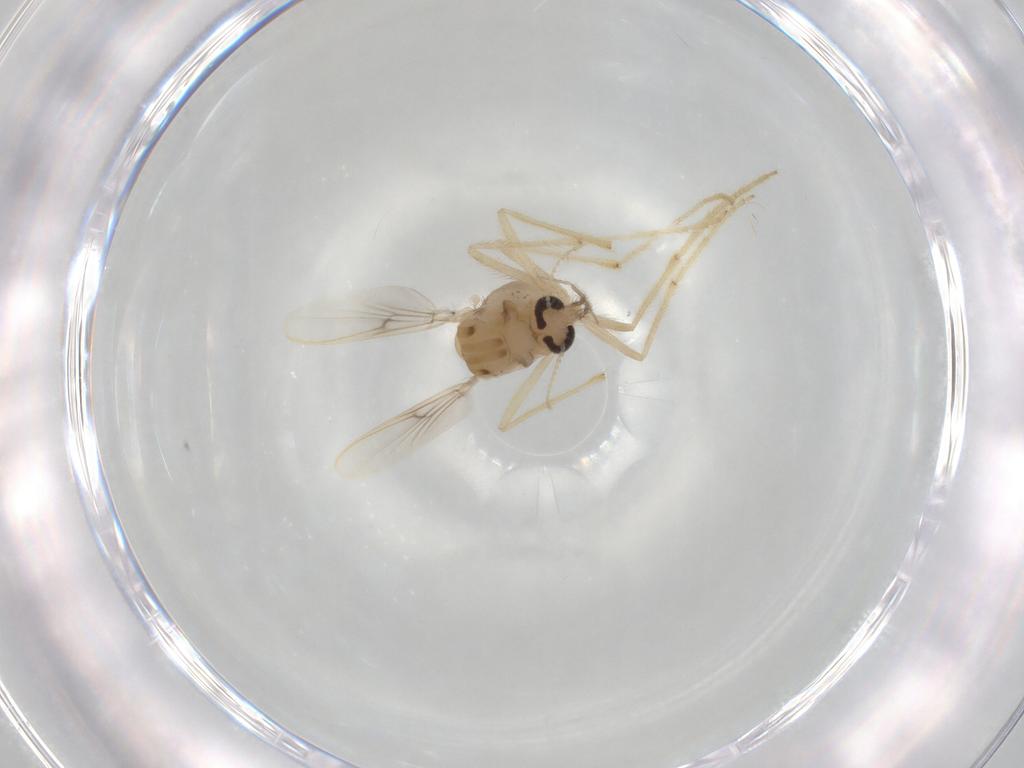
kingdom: Animalia
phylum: Arthropoda
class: Insecta
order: Diptera
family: Chironomidae
